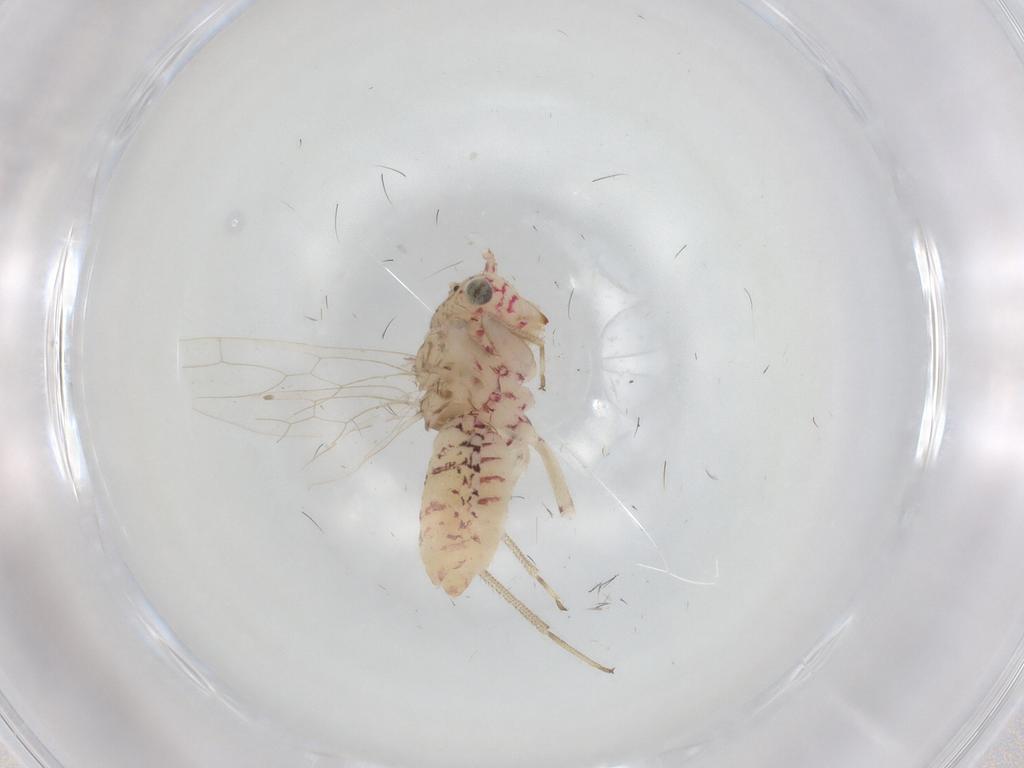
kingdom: Animalia
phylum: Arthropoda
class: Insecta
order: Psocodea
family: Philotarsidae
